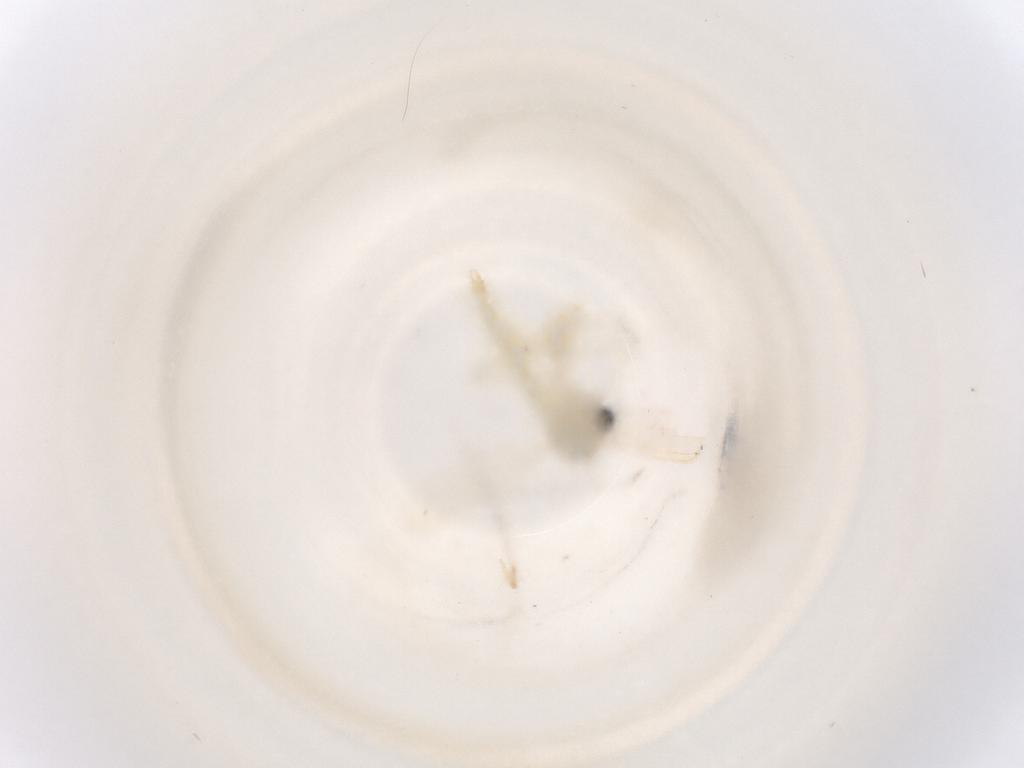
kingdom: Animalia
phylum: Arthropoda
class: Insecta
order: Diptera
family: Chironomidae
